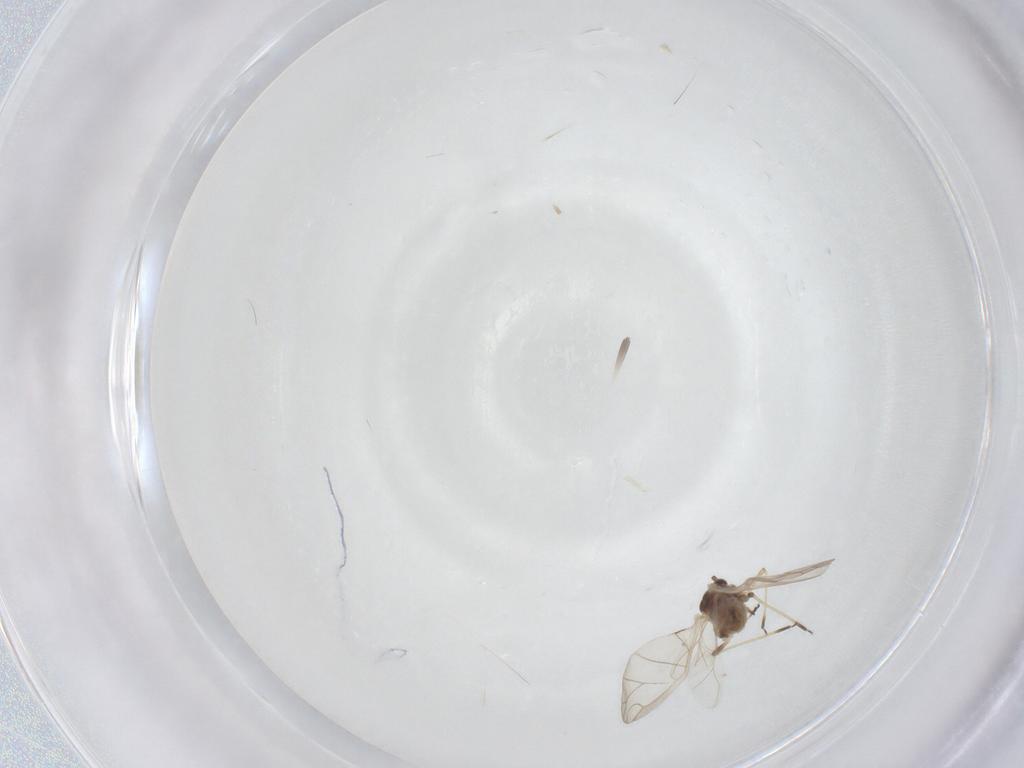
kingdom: Animalia
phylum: Arthropoda
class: Insecta
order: Hemiptera
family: Aphididae
